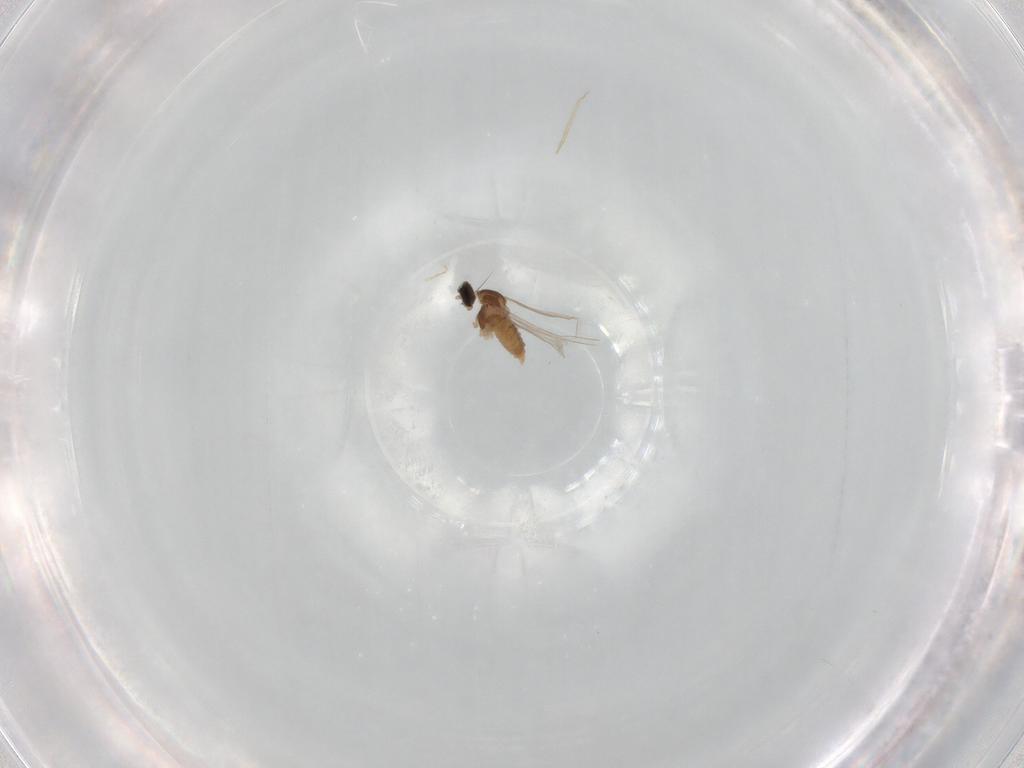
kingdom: Animalia
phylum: Arthropoda
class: Insecta
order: Diptera
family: Cecidomyiidae
